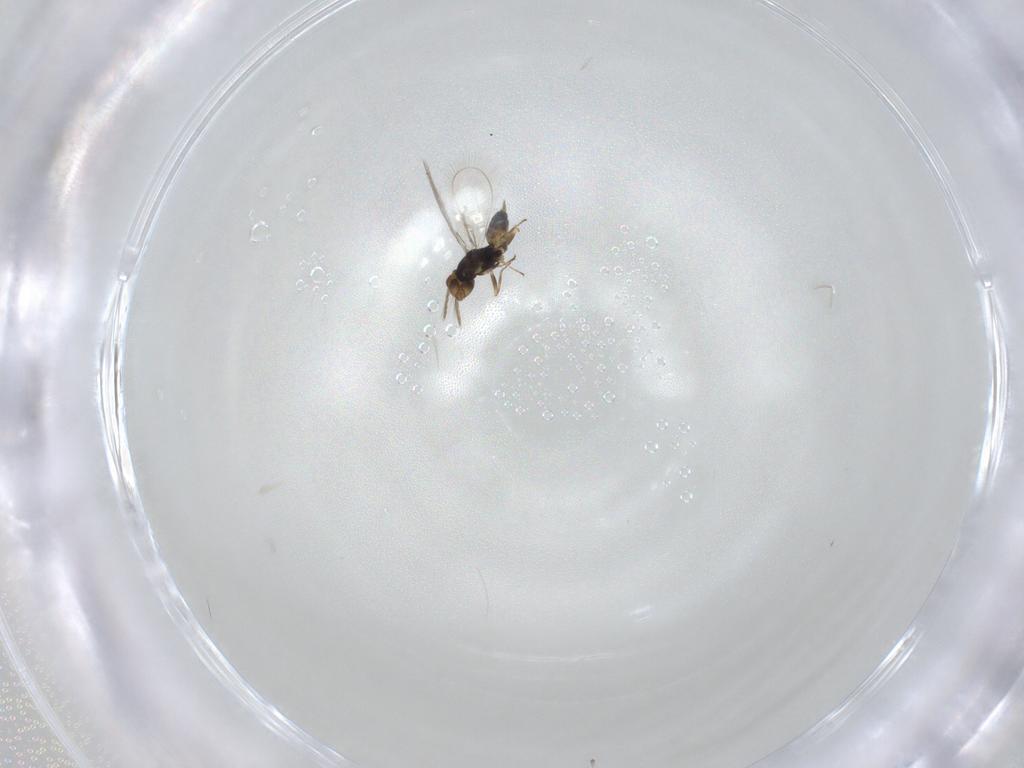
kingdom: Animalia
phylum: Arthropoda
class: Insecta
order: Hymenoptera
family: Eulophidae
